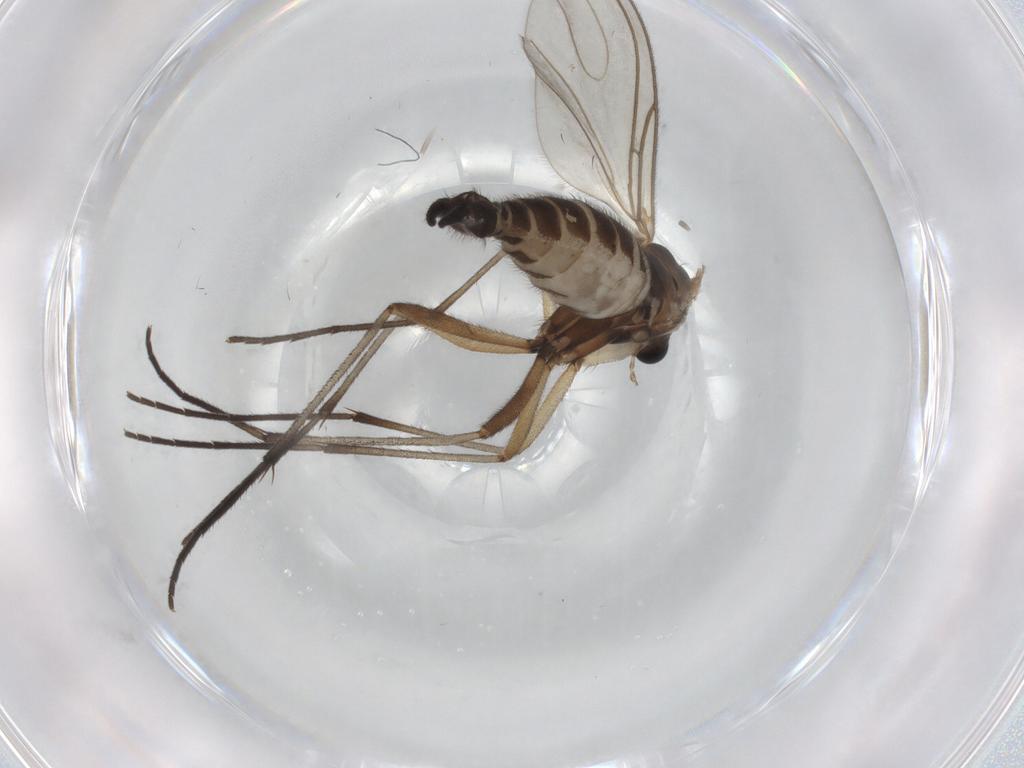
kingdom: Animalia
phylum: Arthropoda
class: Insecta
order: Diptera
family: Sciaridae
